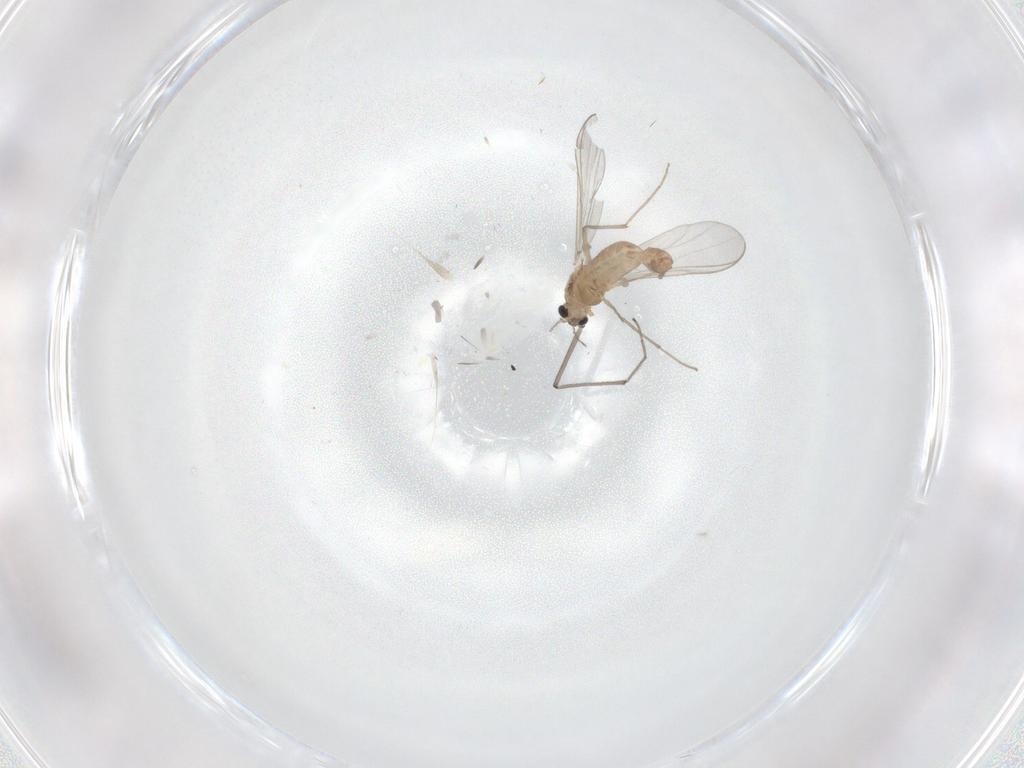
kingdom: Animalia
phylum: Arthropoda
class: Insecta
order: Diptera
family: Chironomidae
